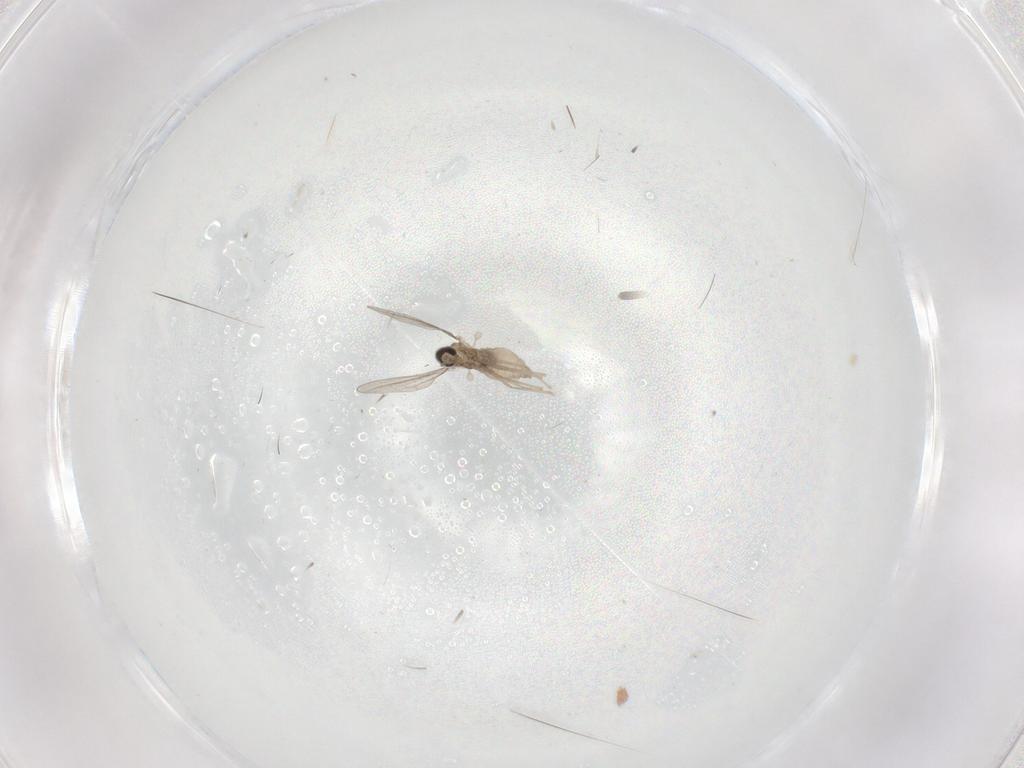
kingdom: Animalia
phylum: Arthropoda
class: Insecta
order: Diptera
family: Cecidomyiidae
